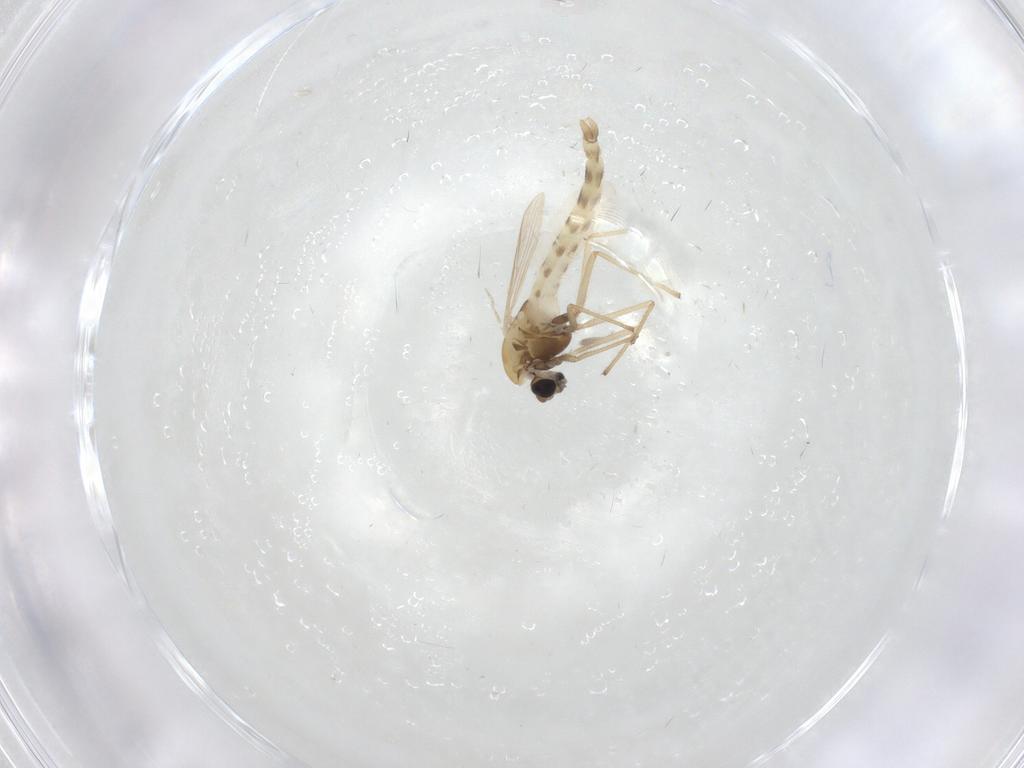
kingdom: Animalia
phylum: Arthropoda
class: Insecta
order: Diptera
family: Chironomidae
